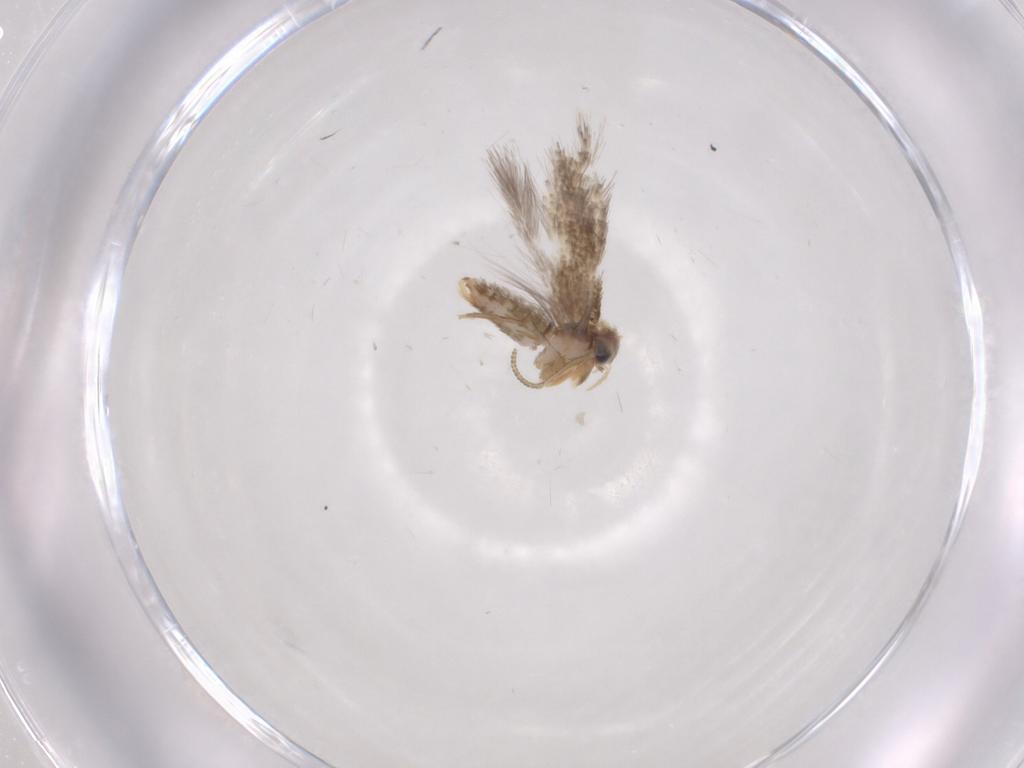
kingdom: Animalia
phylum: Arthropoda
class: Insecta
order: Lepidoptera
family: Nepticulidae
